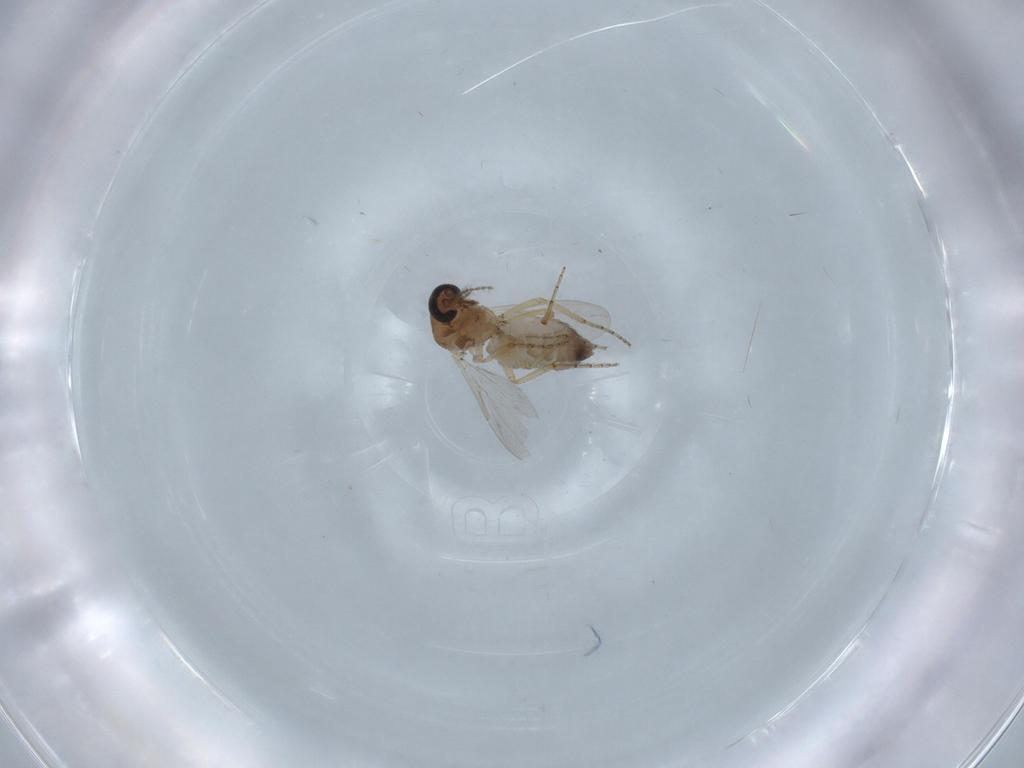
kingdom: Animalia
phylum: Arthropoda
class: Insecta
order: Diptera
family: Ceratopogonidae
